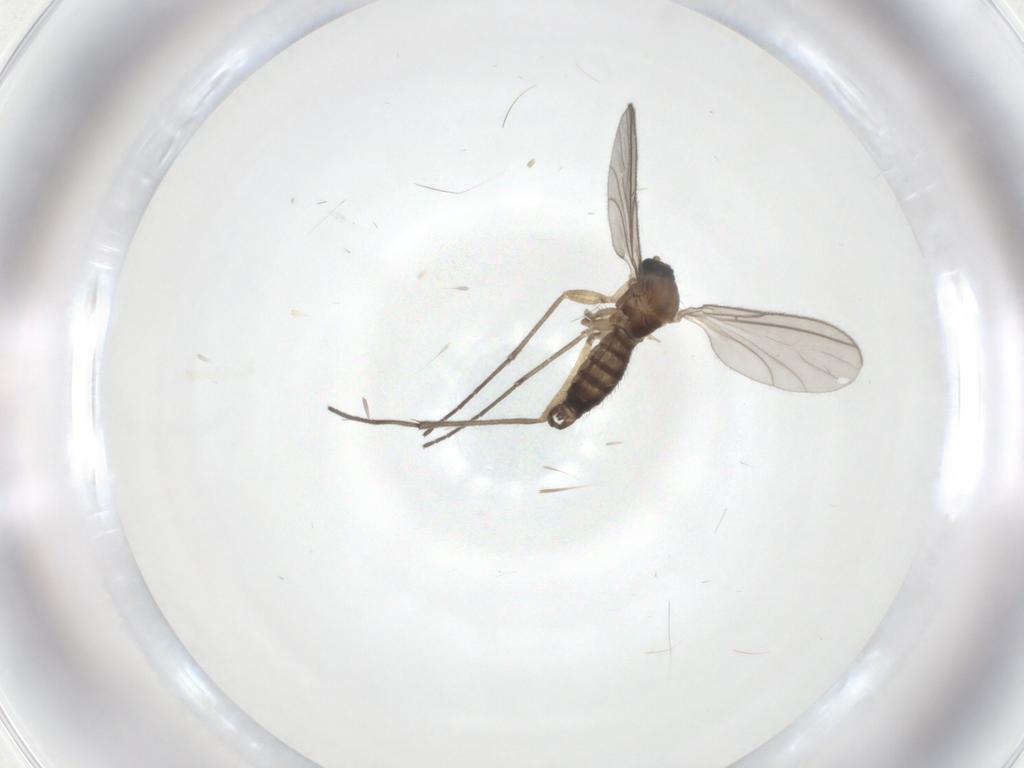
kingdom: Animalia
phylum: Arthropoda
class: Insecta
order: Diptera
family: Sciaridae
